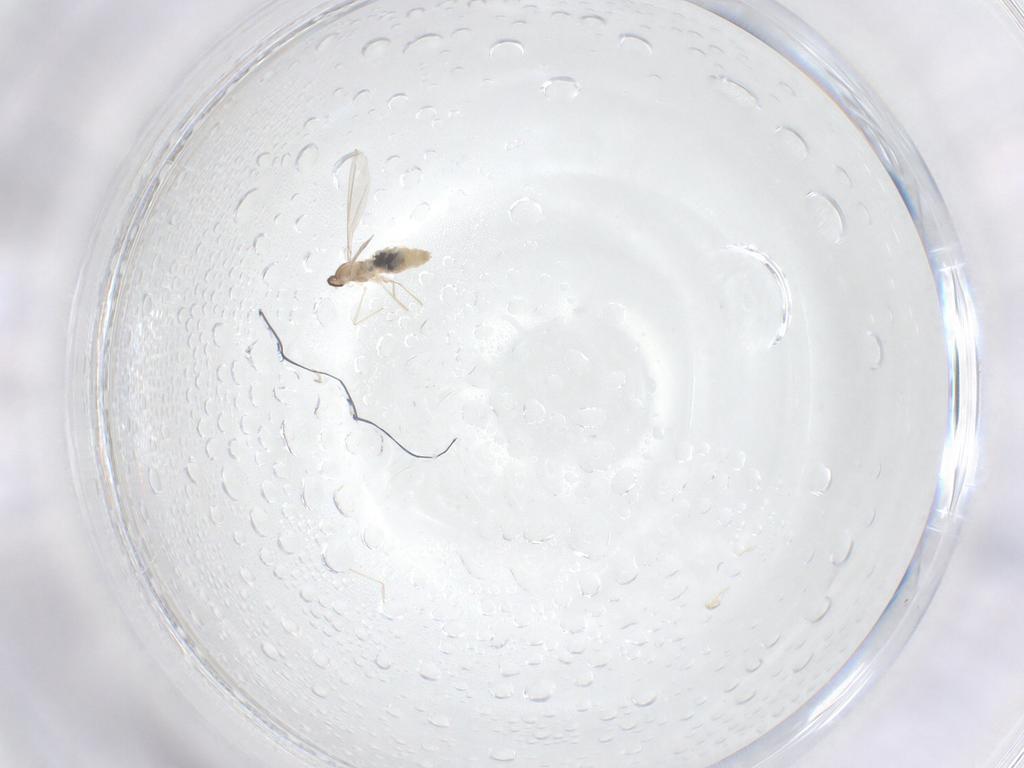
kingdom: Animalia
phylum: Arthropoda
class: Insecta
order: Diptera
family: Cecidomyiidae
